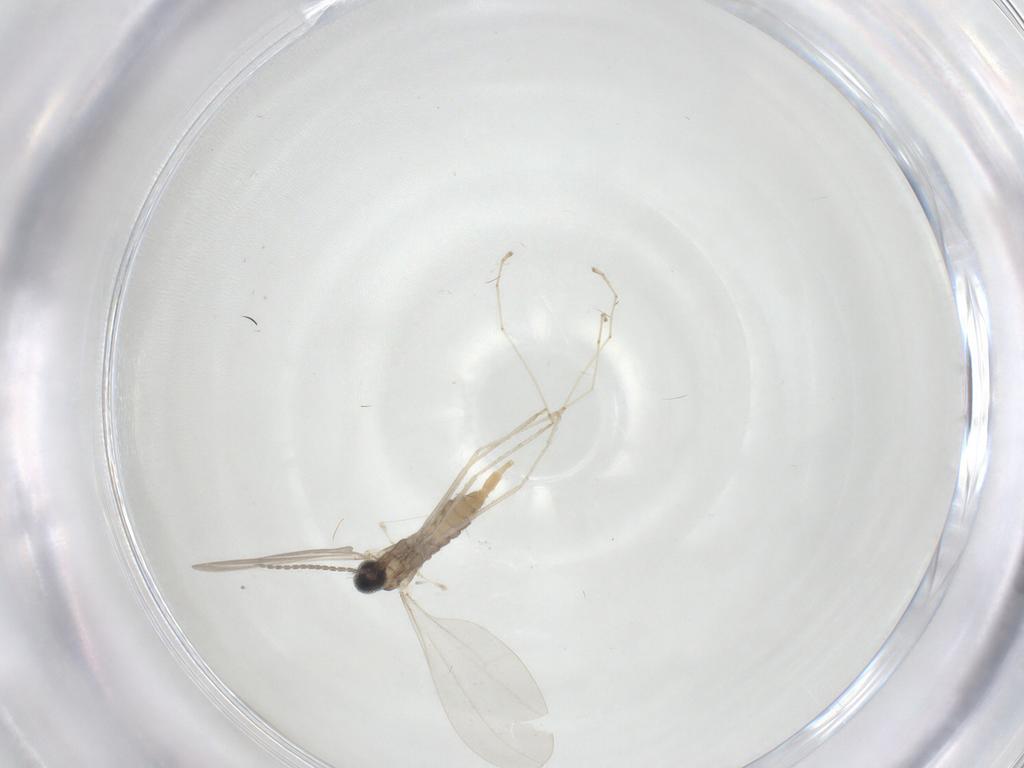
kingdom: Animalia
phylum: Arthropoda
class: Insecta
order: Diptera
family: Cecidomyiidae
